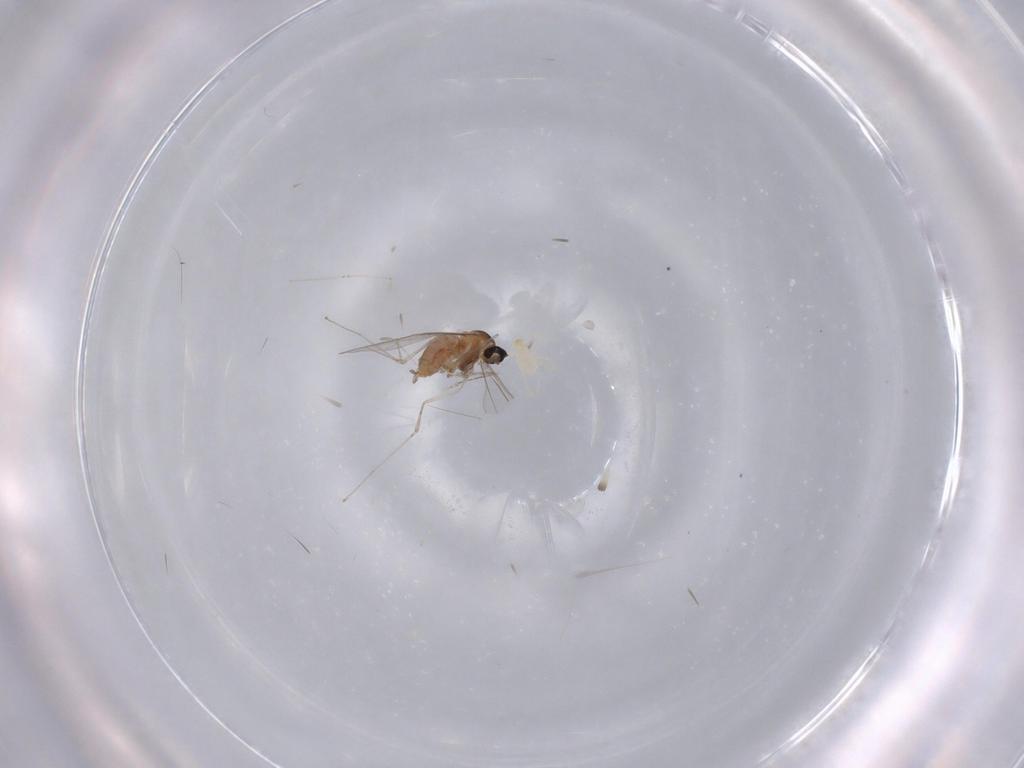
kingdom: Animalia
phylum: Arthropoda
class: Insecta
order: Diptera
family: Cecidomyiidae
